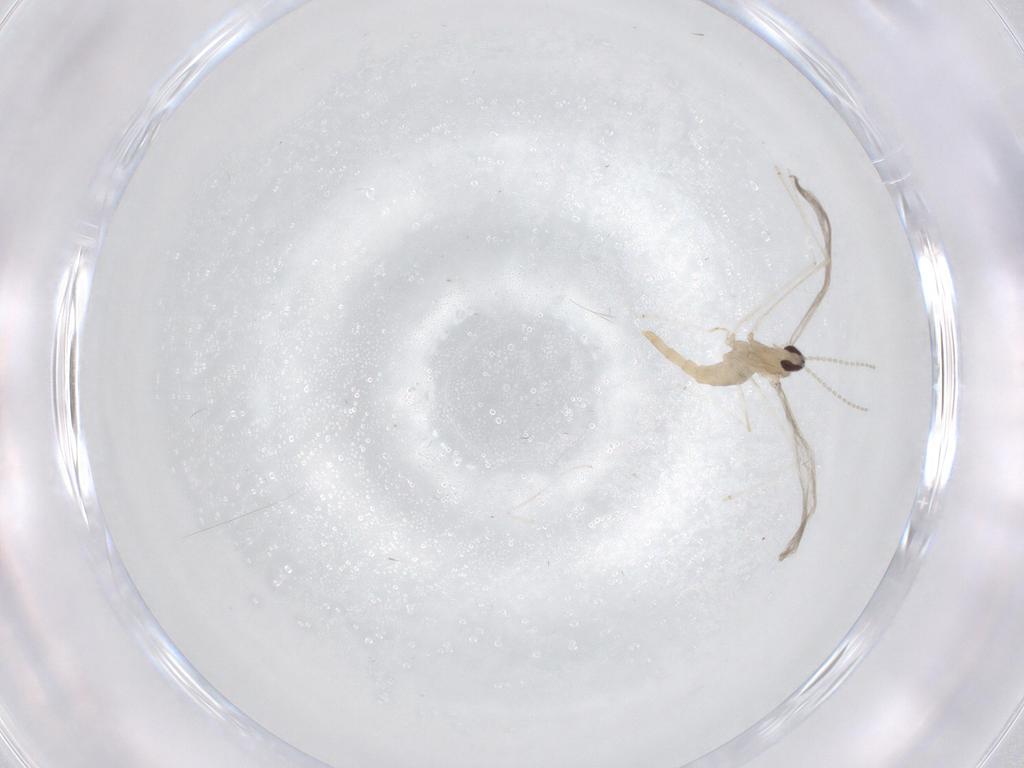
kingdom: Animalia
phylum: Arthropoda
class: Insecta
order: Diptera
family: Cecidomyiidae
